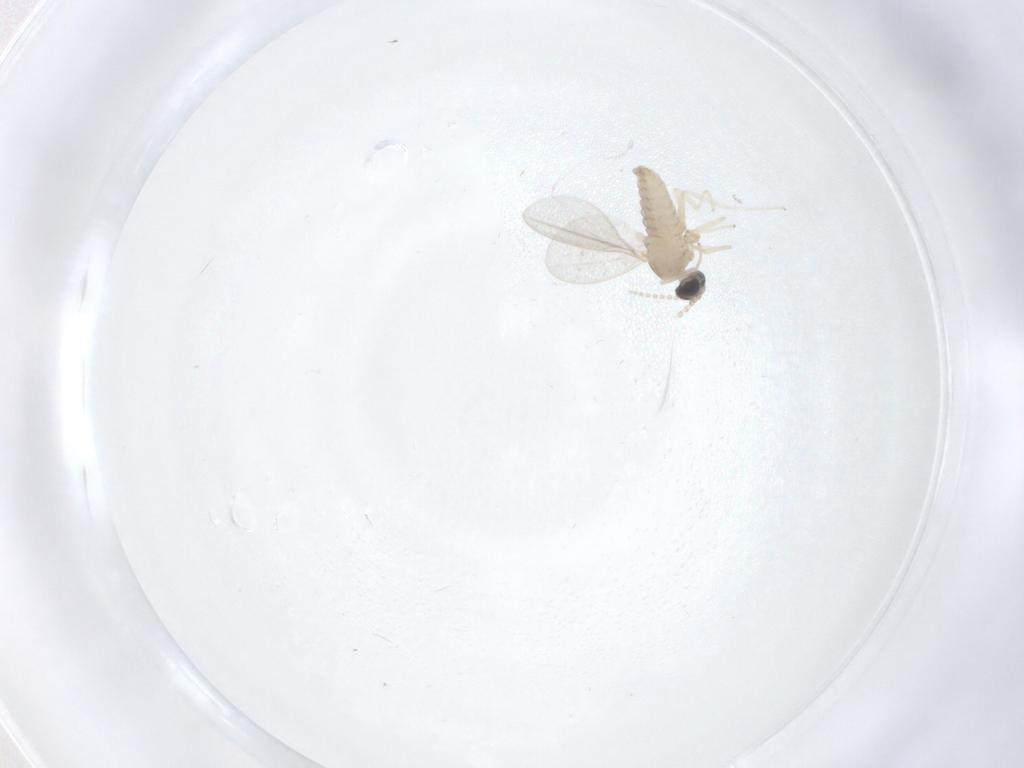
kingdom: Animalia
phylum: Arthropoda
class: Insecta
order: Diptera
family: Cecidomyiidae
